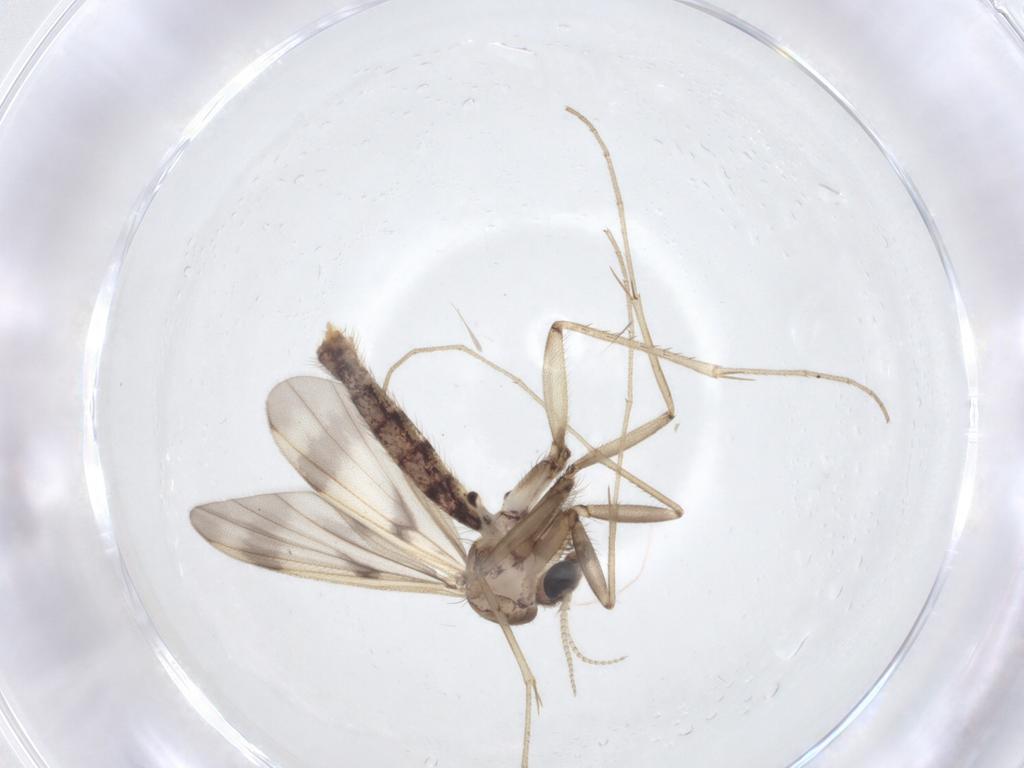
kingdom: Animalia
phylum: Arthropoda
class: Insecta
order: Diptera
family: Mycetophilidae
